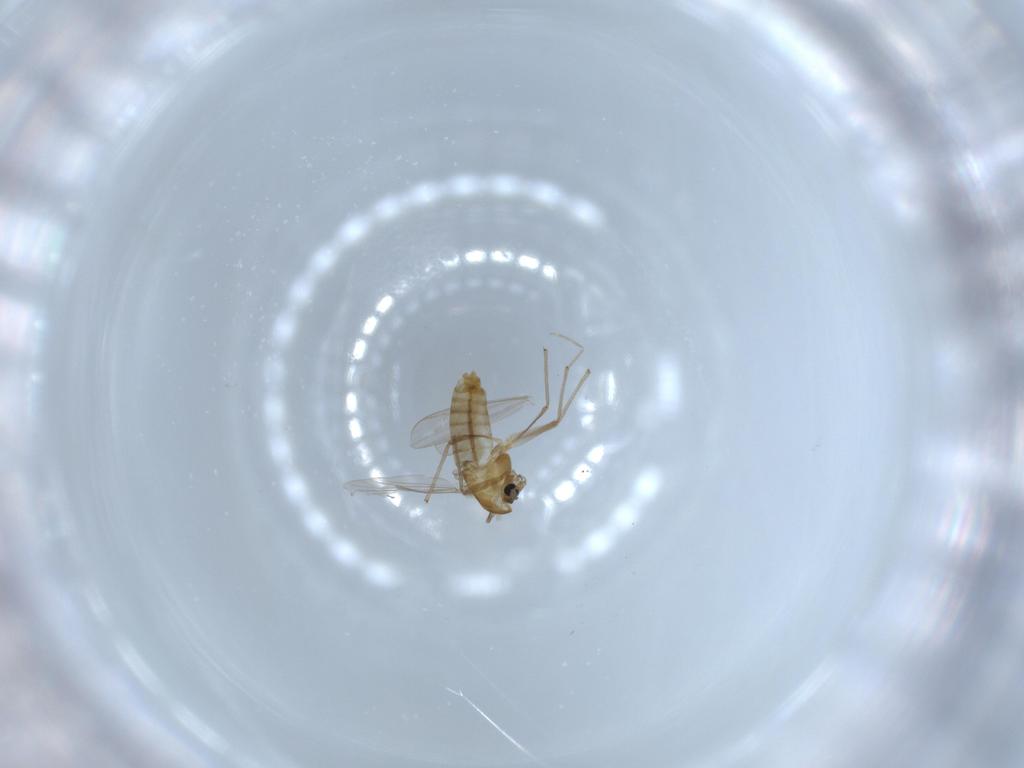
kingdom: Animalia
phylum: Arthropoda
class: Insecta
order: Diptera
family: Chironomidae
